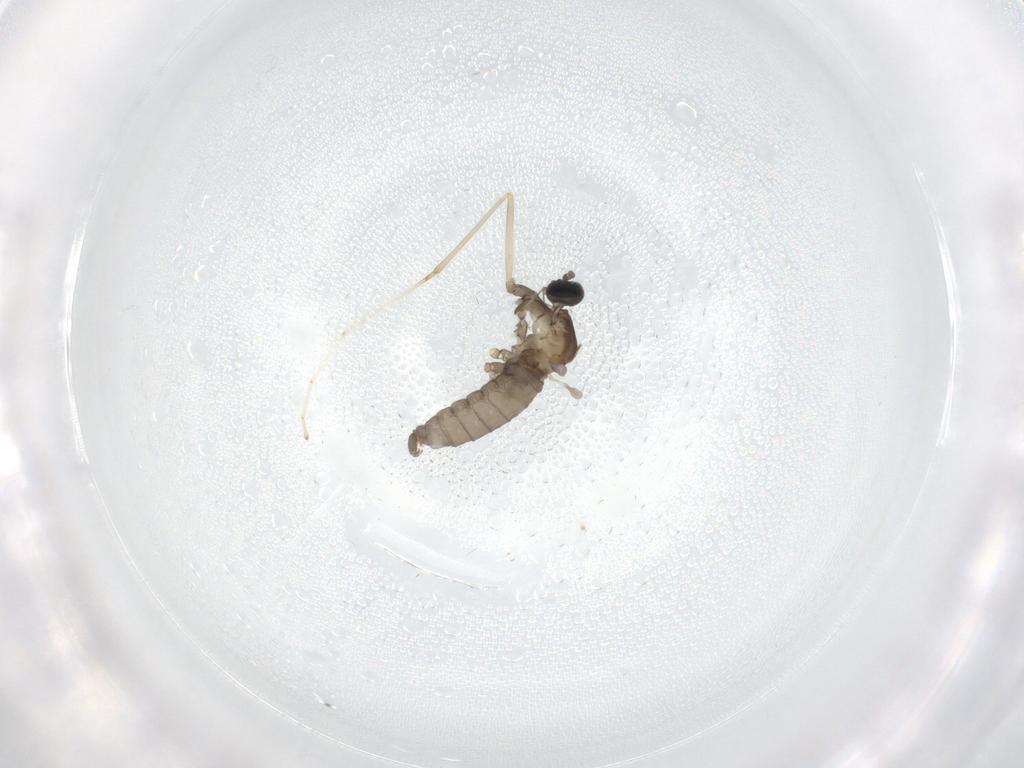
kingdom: Animalia
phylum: Arthropoda
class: Insecta
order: Diptera
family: Cecidomyiidae
